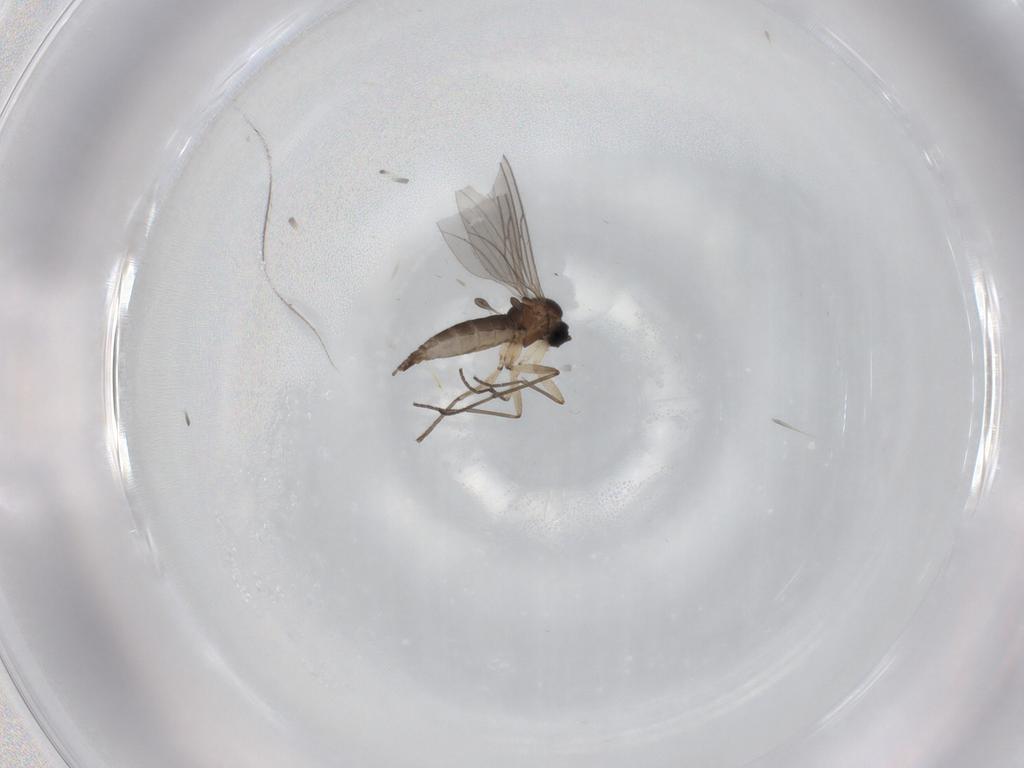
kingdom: Animalia
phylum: Arthropoda
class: Insecta
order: Diptera
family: Sciaridae
